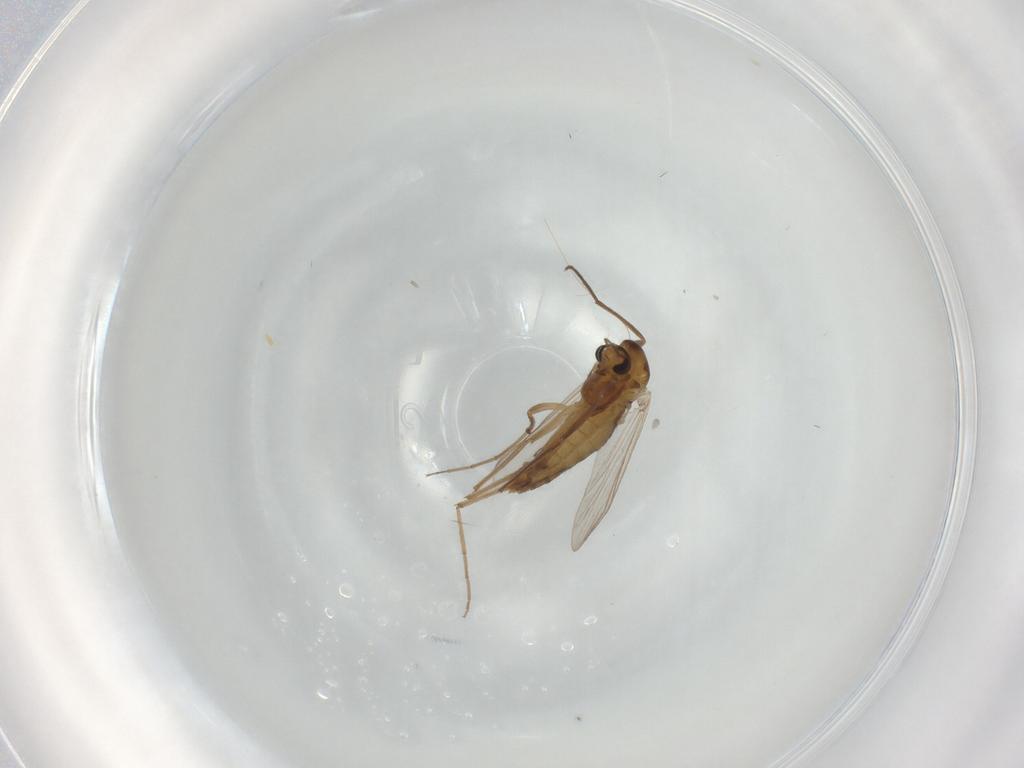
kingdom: Animalia
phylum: Arthropoda
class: Insecta
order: Diptera
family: Chironomidae
